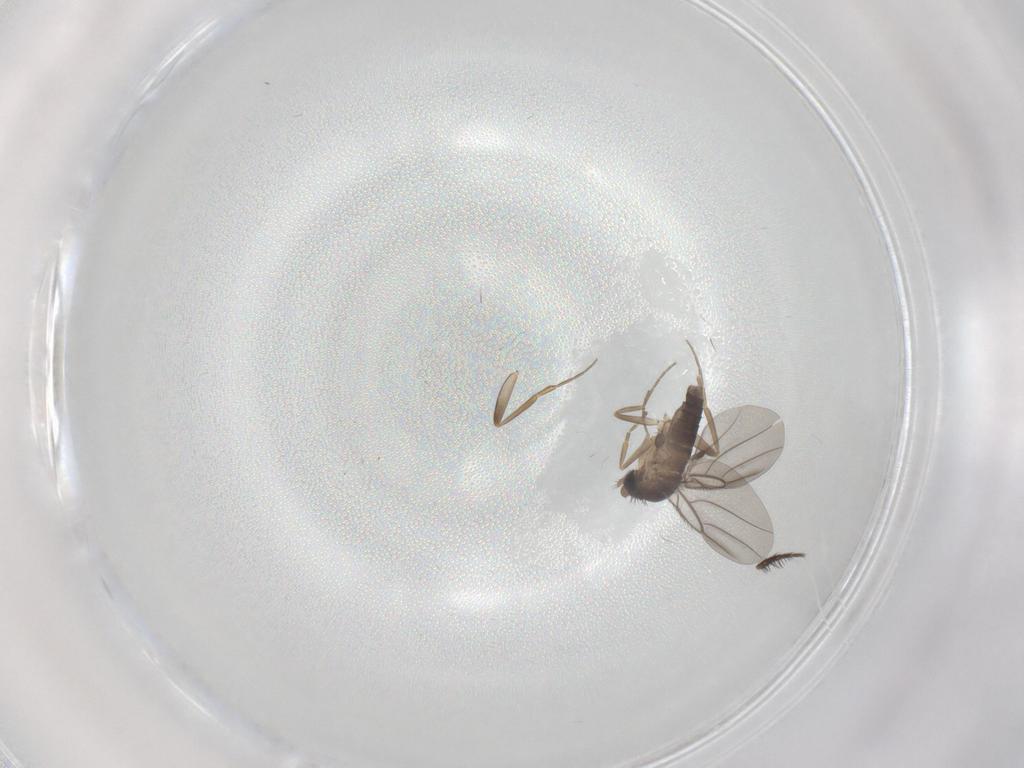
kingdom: Animalia
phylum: Arthropoda
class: Insecta
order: Diptera
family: Phoridae
